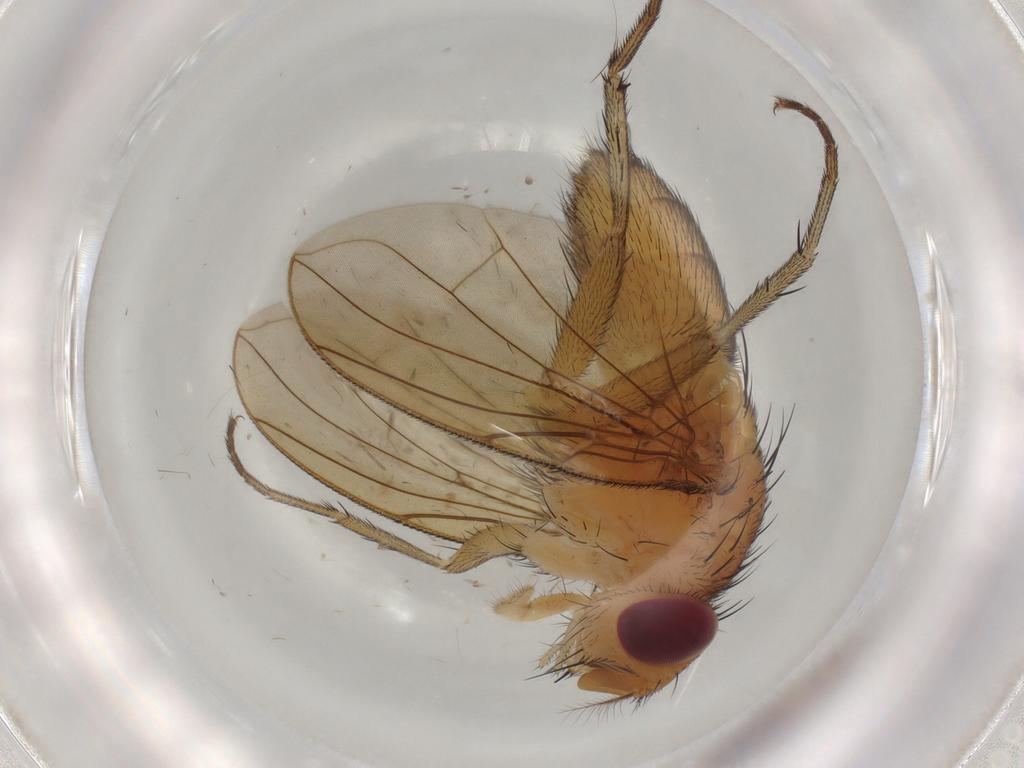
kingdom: Animalia
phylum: Arthropoda
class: Insecta
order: Diptera
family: Calliphoridae
